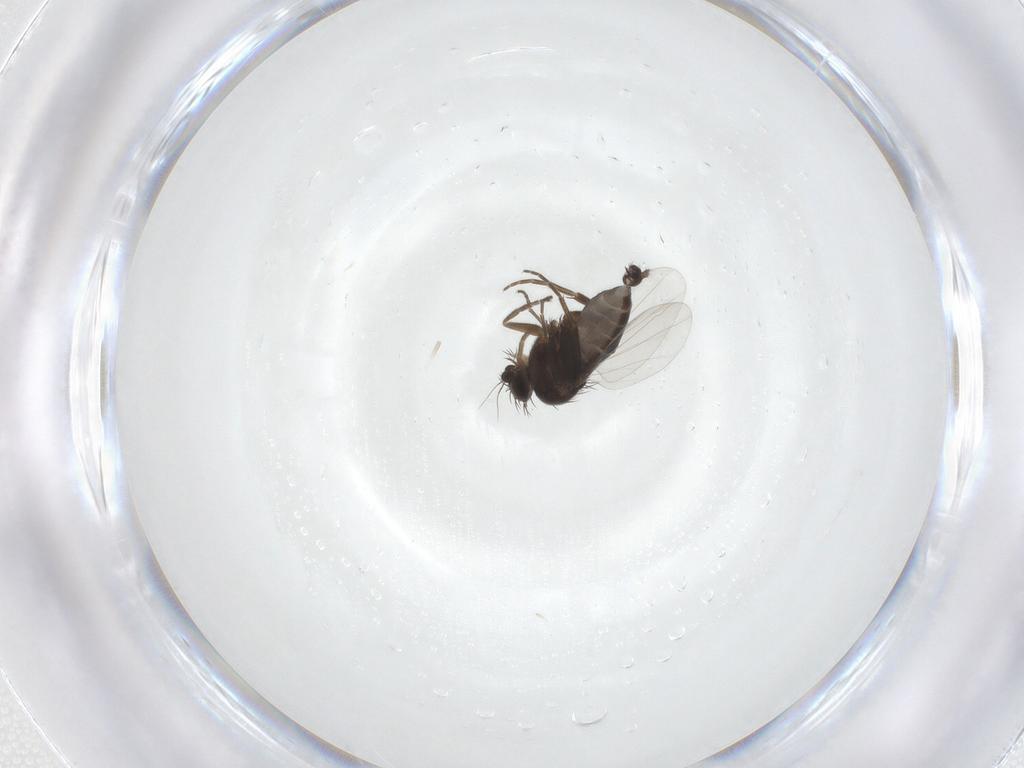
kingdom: Animalia
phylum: Arthropoda
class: Insecta
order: Diptera
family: Phoridae
